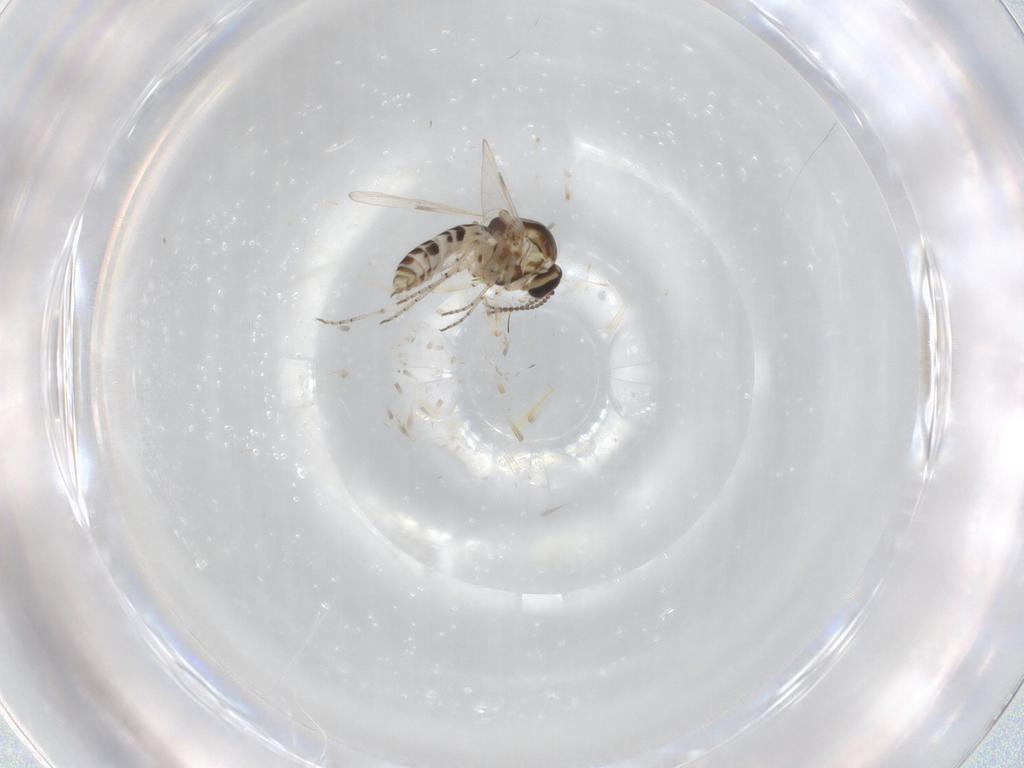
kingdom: Animalia
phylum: Arthropoda
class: Insecta
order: Diptera
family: Ceratopogonidae
